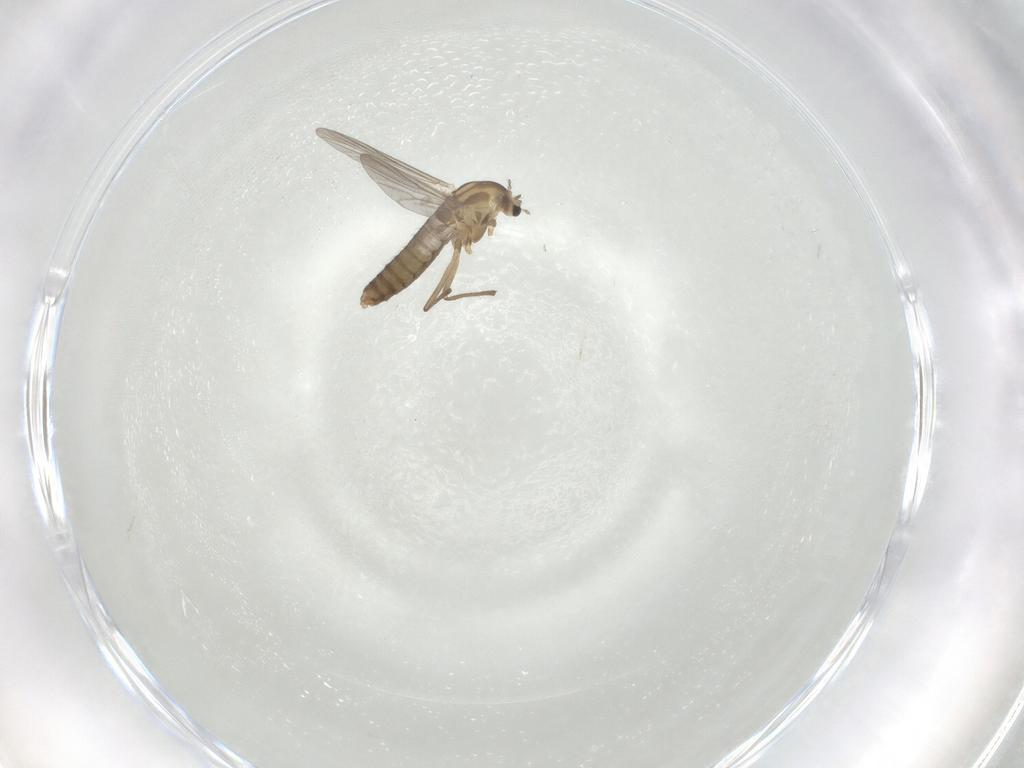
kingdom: Animalia
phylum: Arthropoda
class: Insecta
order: Diptera
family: Chironomidae
